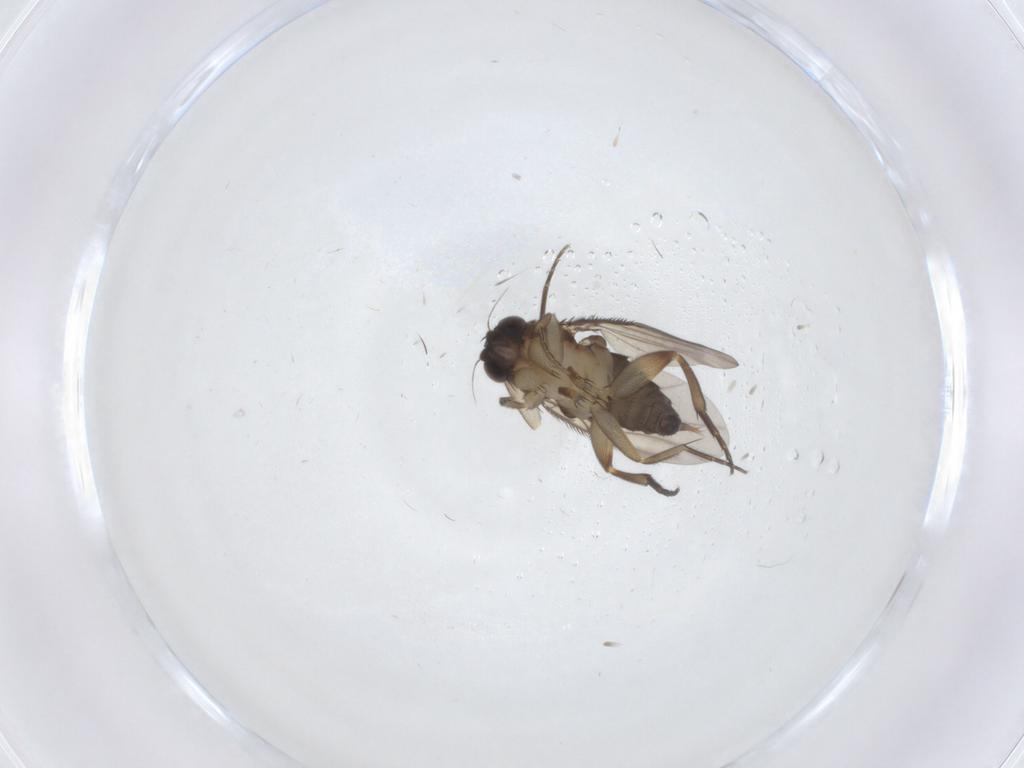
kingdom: Animalia
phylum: Arthropoda
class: Insecta
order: Diptera
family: Phoridae
